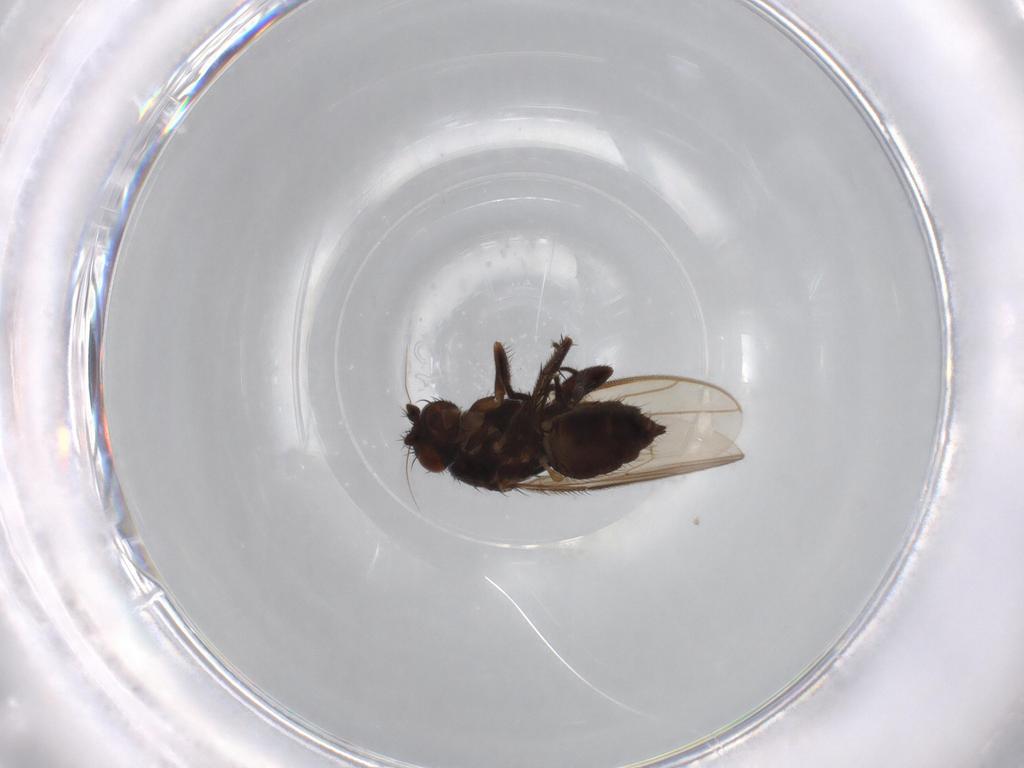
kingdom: Animalia
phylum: Arthropoda
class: Insecta
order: Diptera
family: Sphaeroceridae
